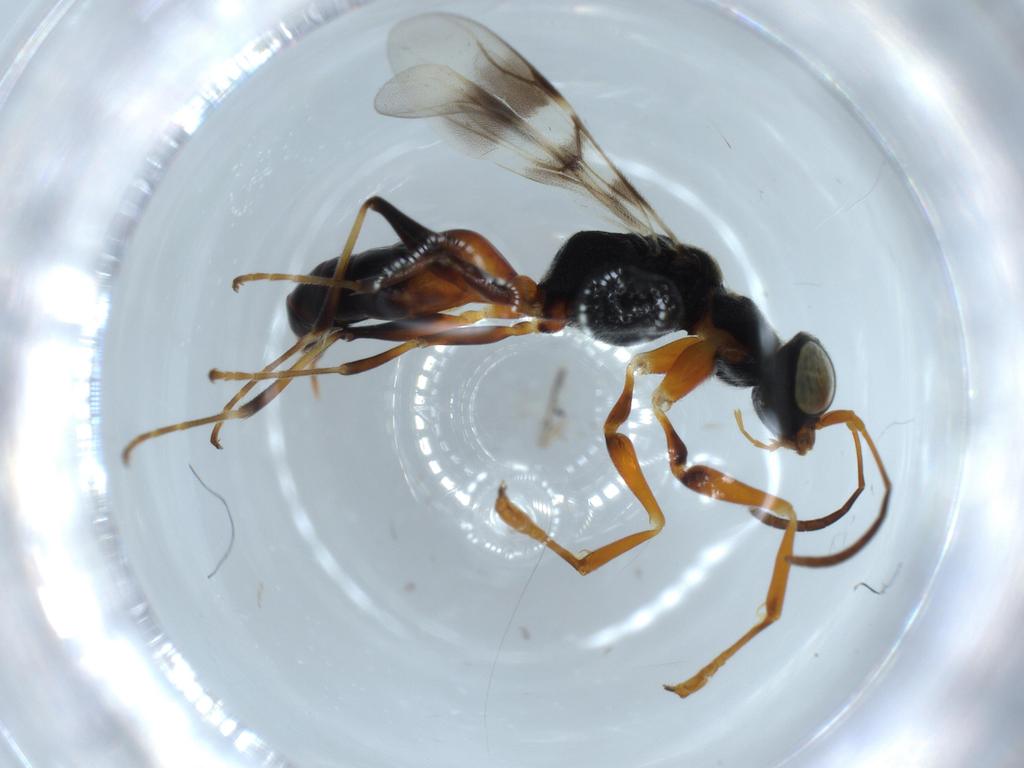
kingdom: Animalia
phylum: Arthropoda
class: Insecta
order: Hymenoptera
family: Dryinidae
